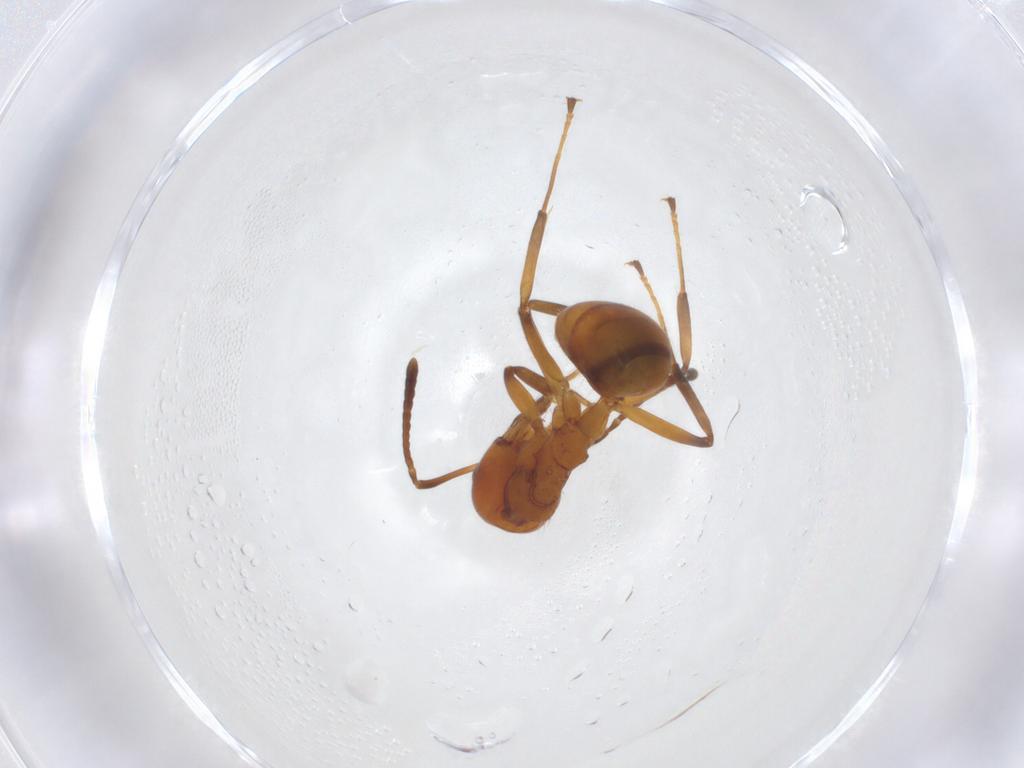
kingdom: Animalia
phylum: Arthropoda
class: Insecta
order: Hymenoptera
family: Formicidae
